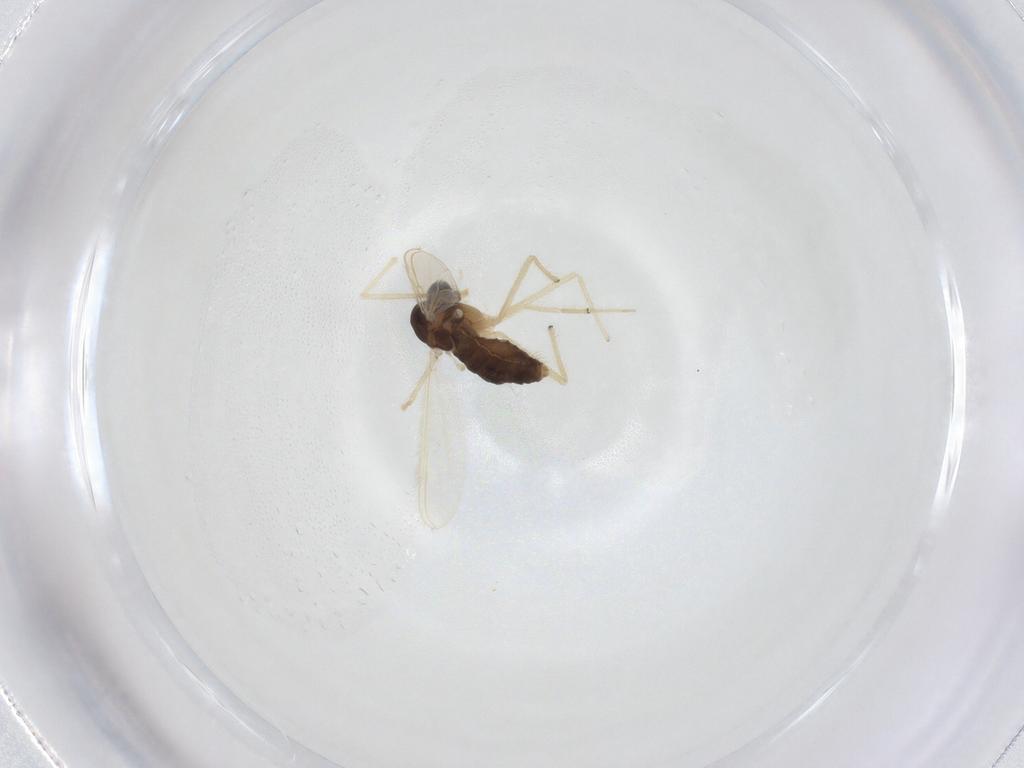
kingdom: Animalia
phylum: Arthropoda
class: Insecta
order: Diptera
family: Chironomidae
